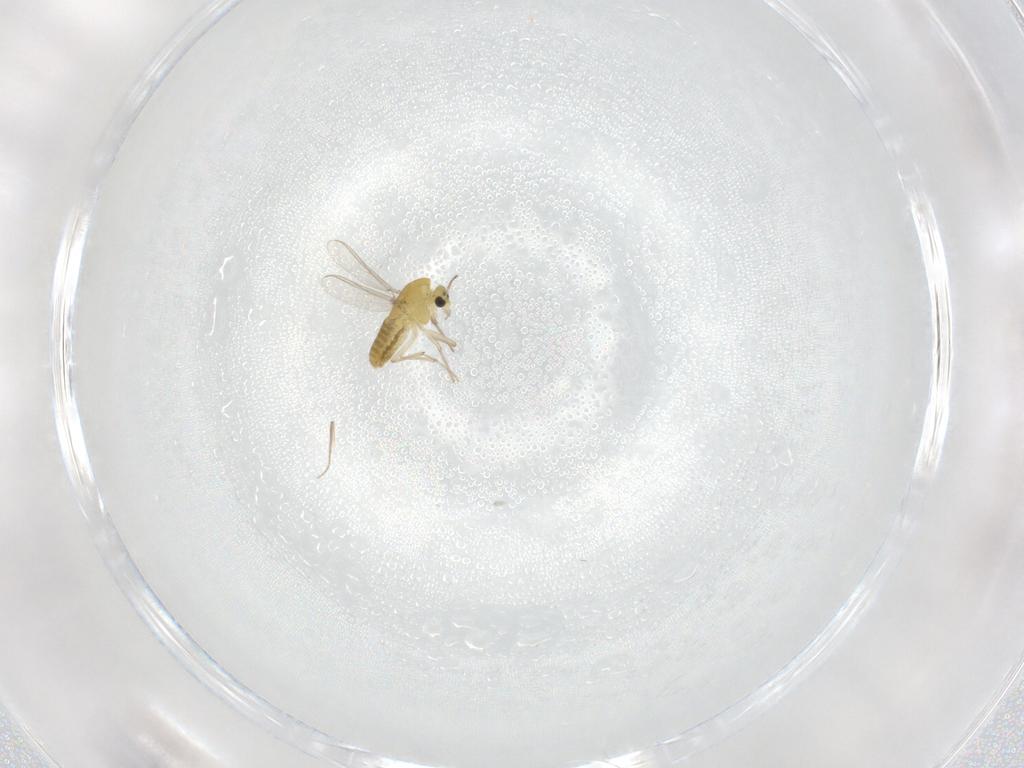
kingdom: Animalia
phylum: Arthropoda
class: Insecta
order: Diptera
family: Chironomidae
